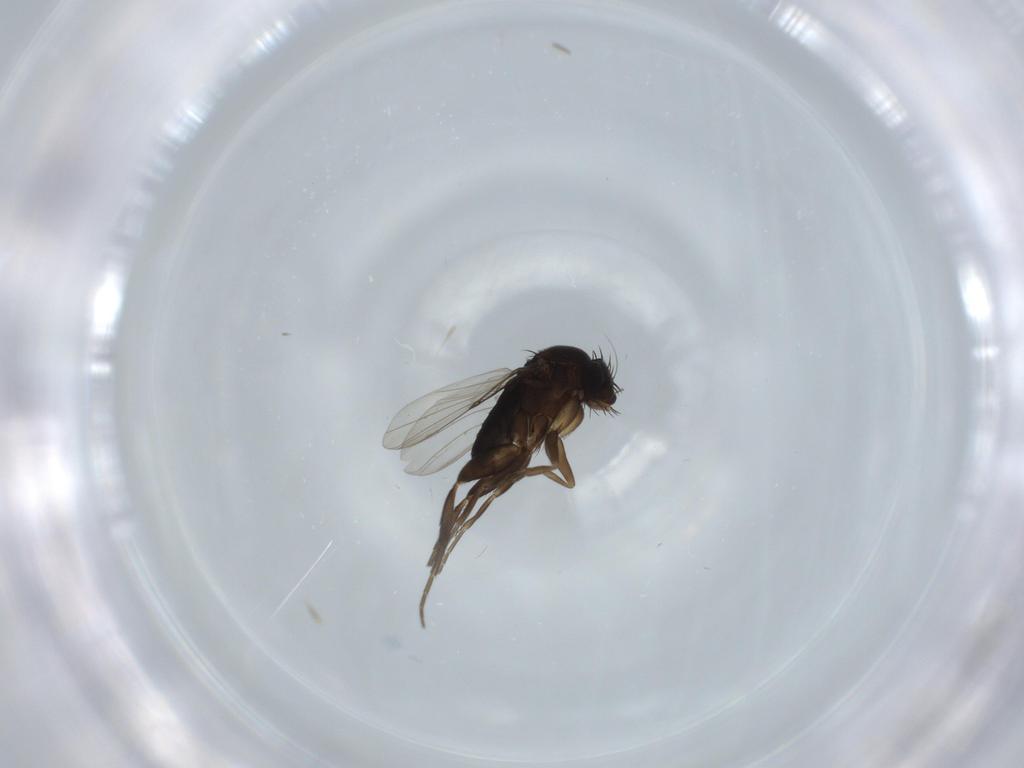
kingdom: Animalia
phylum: Arthropoda
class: Insecta
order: Diptera
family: Phoridae
